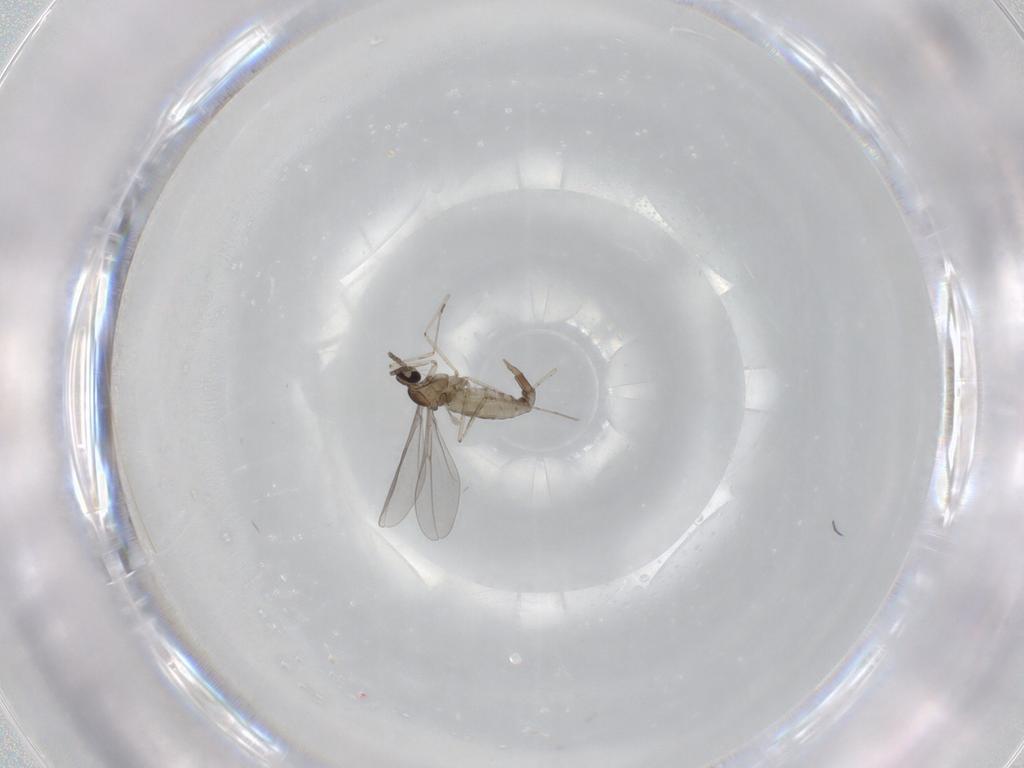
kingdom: Animalia
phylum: Arthropoda
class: Insecta
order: Diptera
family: Cecidomyiidae
